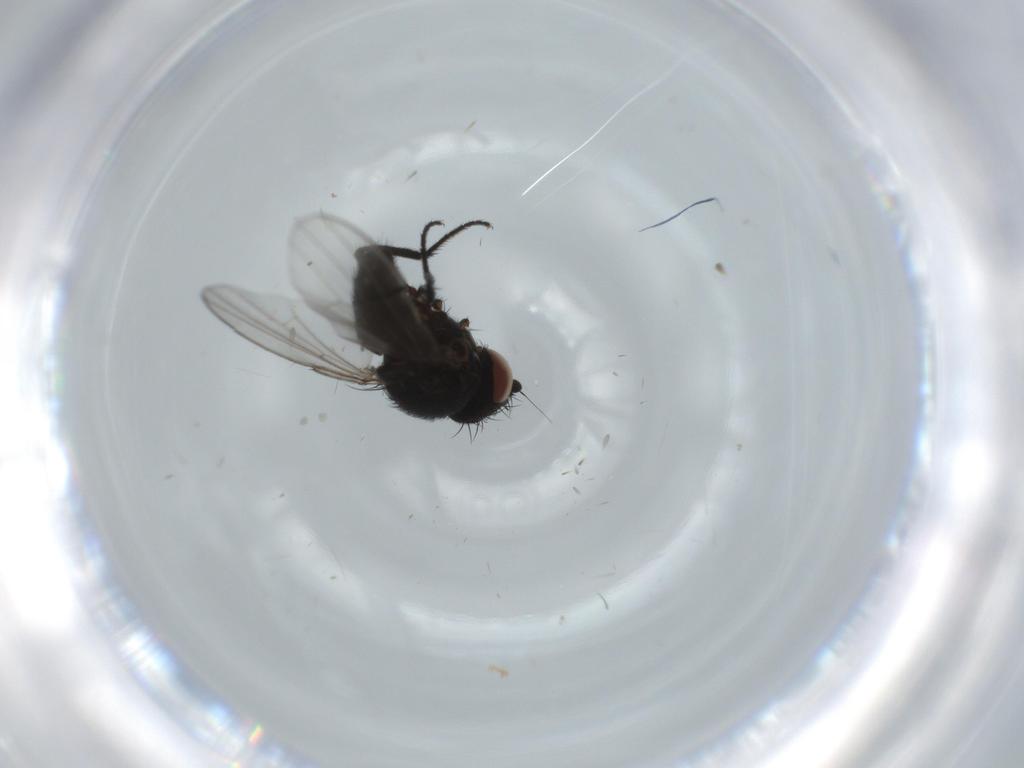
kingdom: Animalia
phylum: Arthropoda
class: Insecta
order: Diptera
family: Milichiidae
